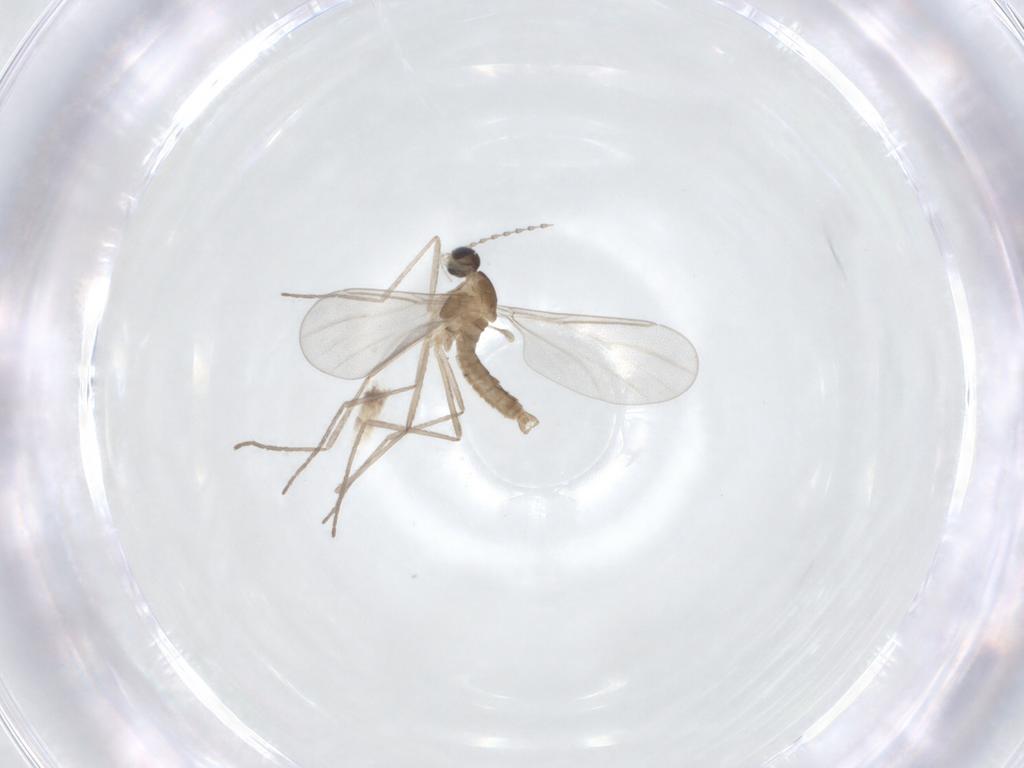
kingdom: Animalia
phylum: Arthropoda
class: Insecta
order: Diptera
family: Cecidomyiidae
